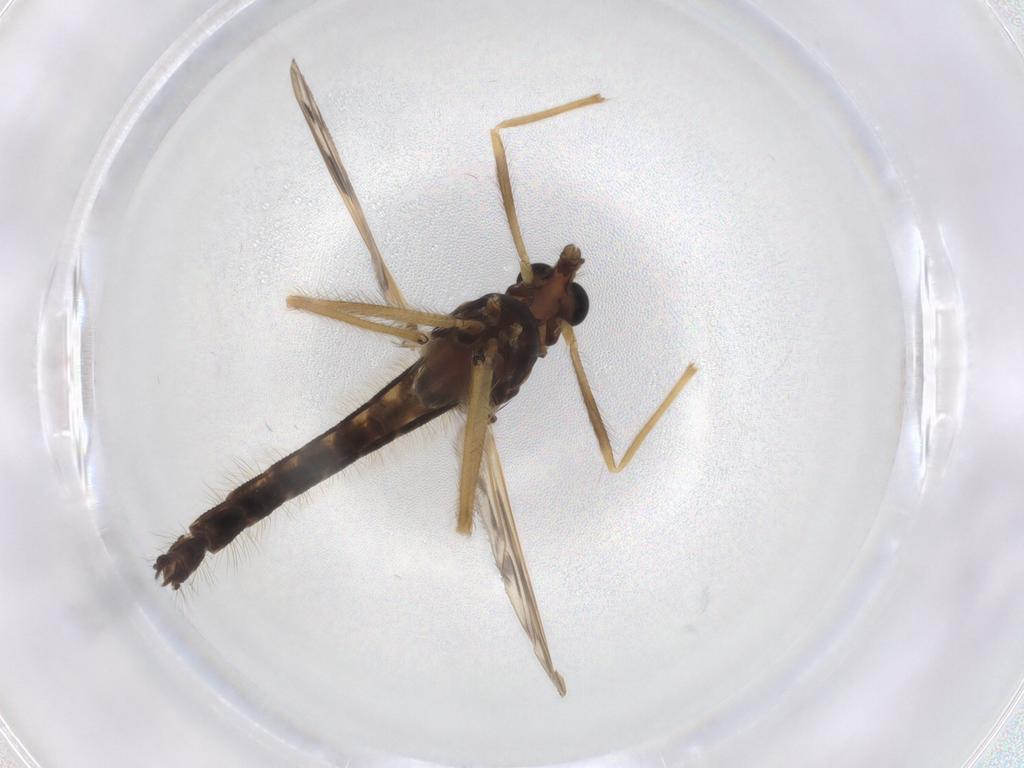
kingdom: Animalia
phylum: Arthropoda
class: Insecta
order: Diptera
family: Chironomidae
